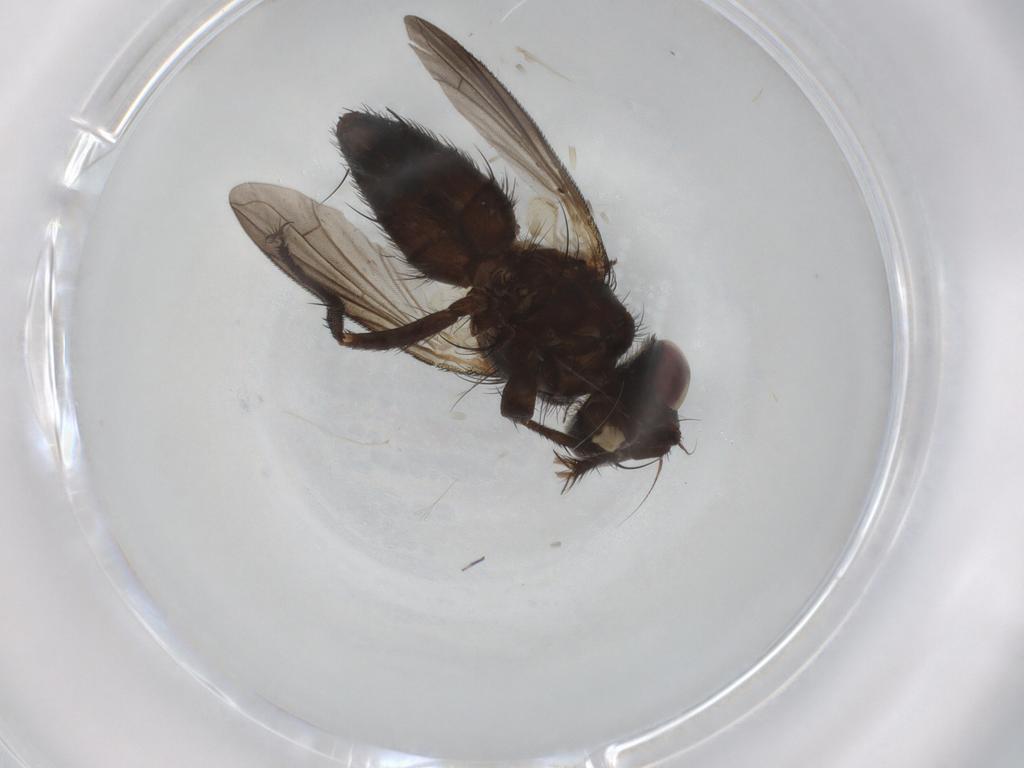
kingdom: Animalia
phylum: Arthropoda
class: Insecta
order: Diptera
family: Tachinidae
